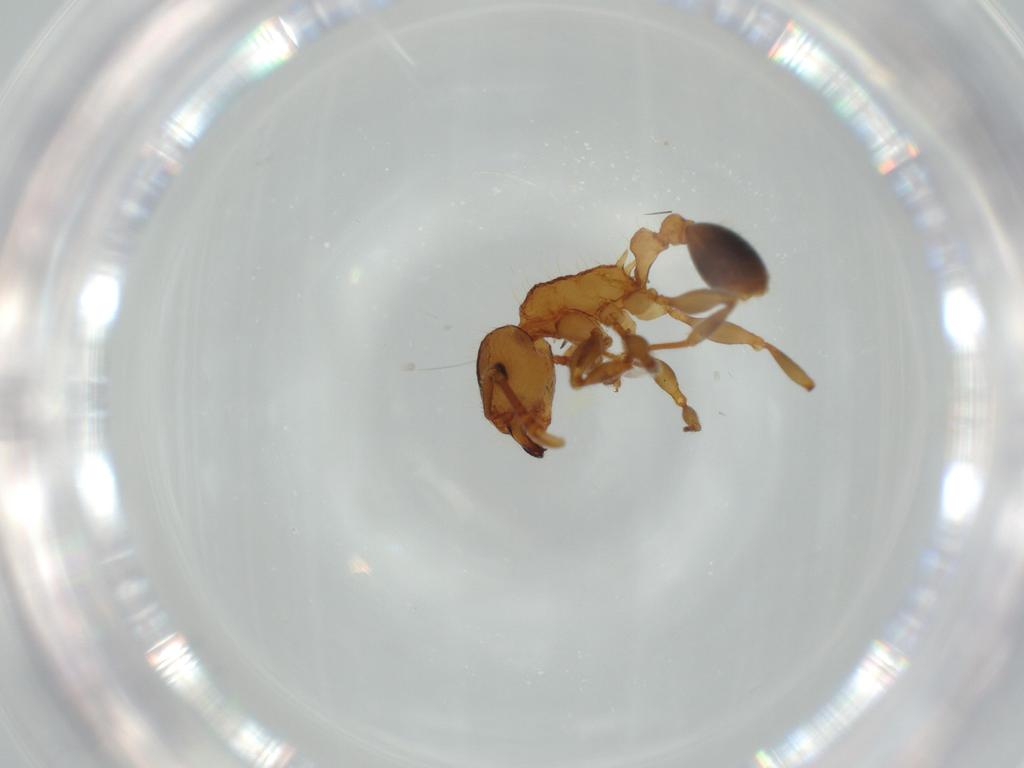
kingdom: Animalia
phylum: Arthropoda
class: Insecta
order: Hymenoptera
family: Formicidae
